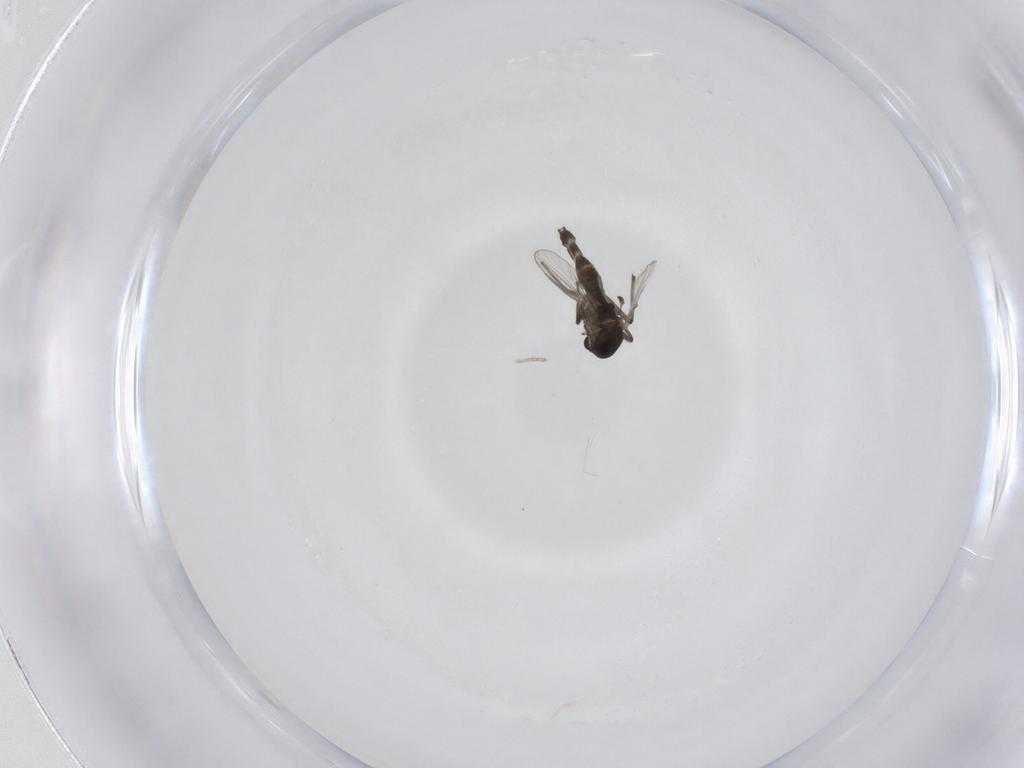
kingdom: Animalia
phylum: Arthropoda
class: Insecta
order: Diptera
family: Chironomidae
